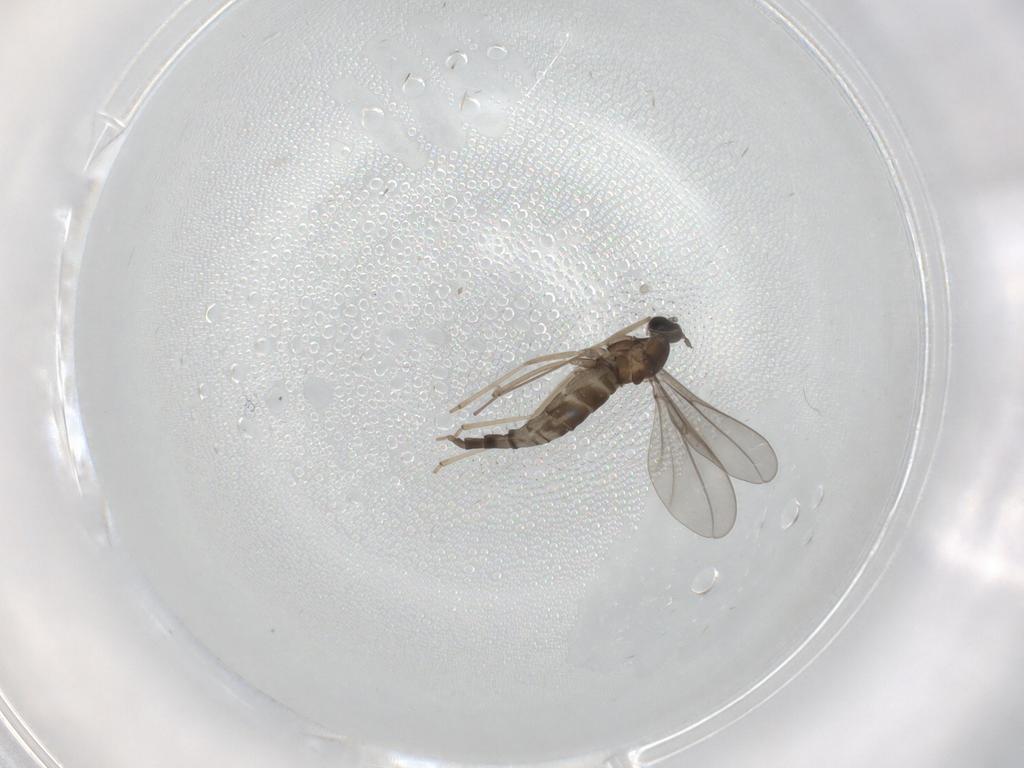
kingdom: Animalia
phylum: Arthropoda
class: Insecta
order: Diptera
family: Cecidomyiidae
